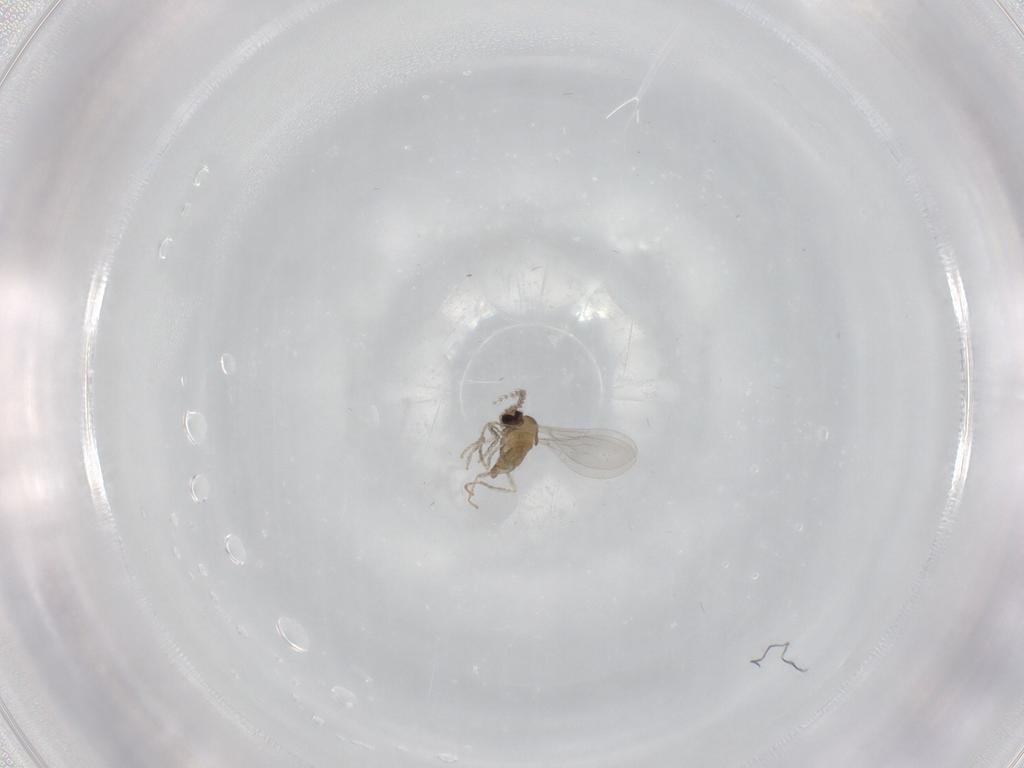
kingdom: Animalia
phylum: Arthropoda
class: Insecta
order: Diptera
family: Cecidomyiidae
